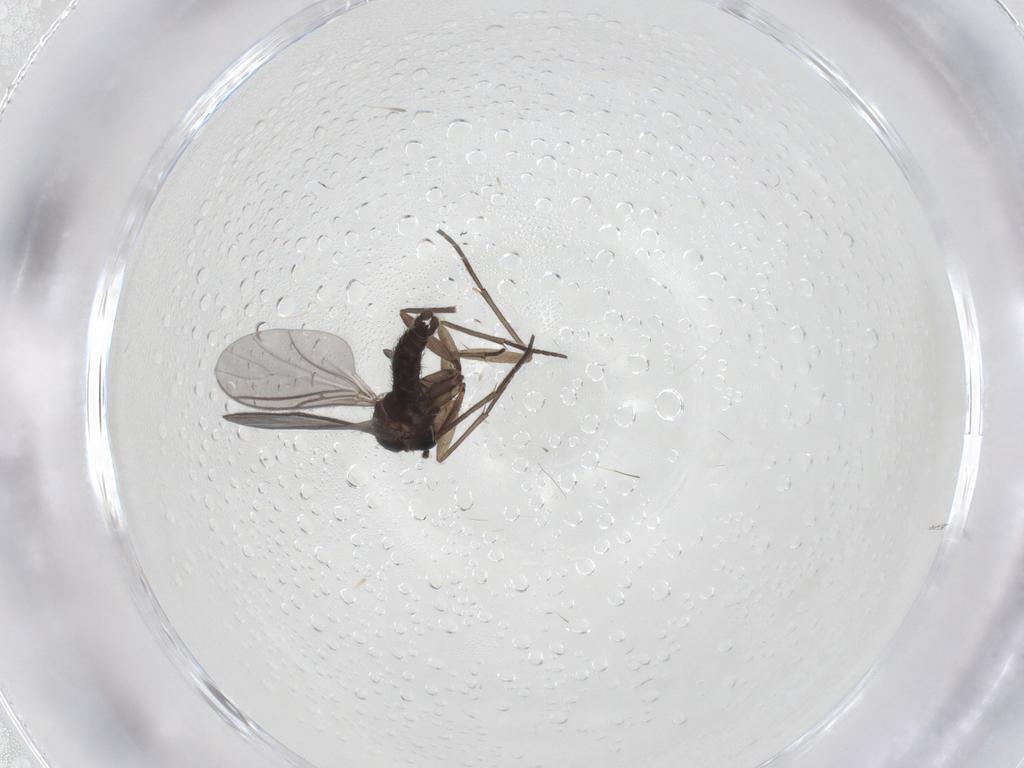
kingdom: Animalia
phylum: Arthropoda
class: Insecta
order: Diptera
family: Sciaridae
